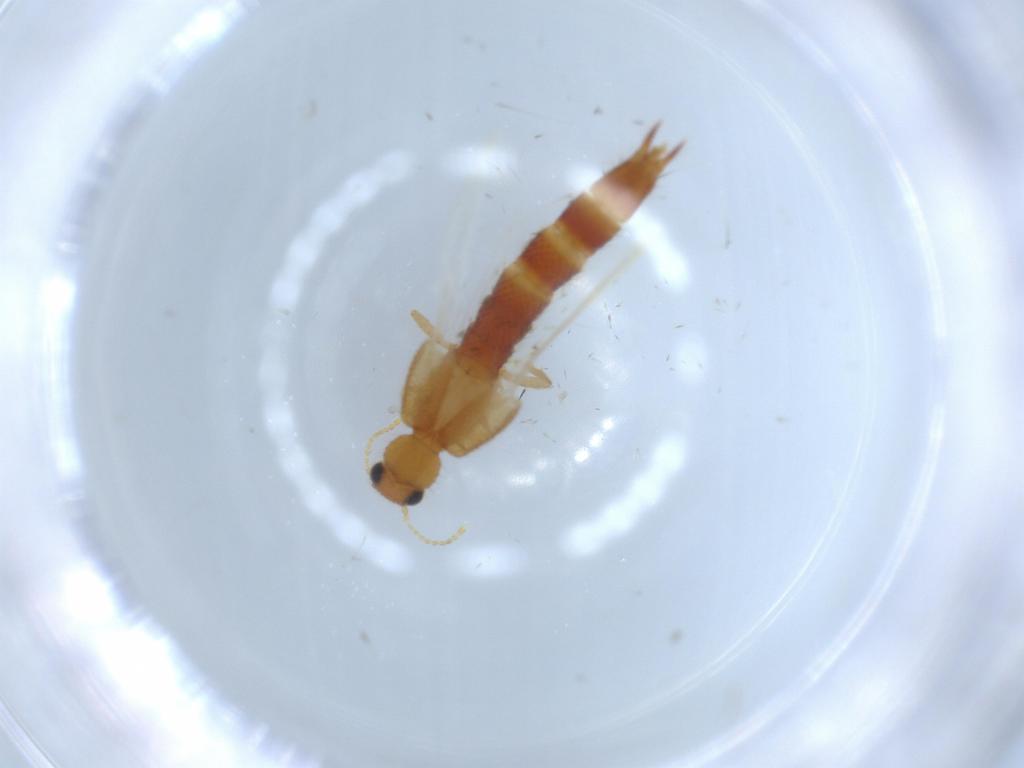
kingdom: Animalia
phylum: Arthropoda
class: Insecta
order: Coleoptera
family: Staphylinidae
